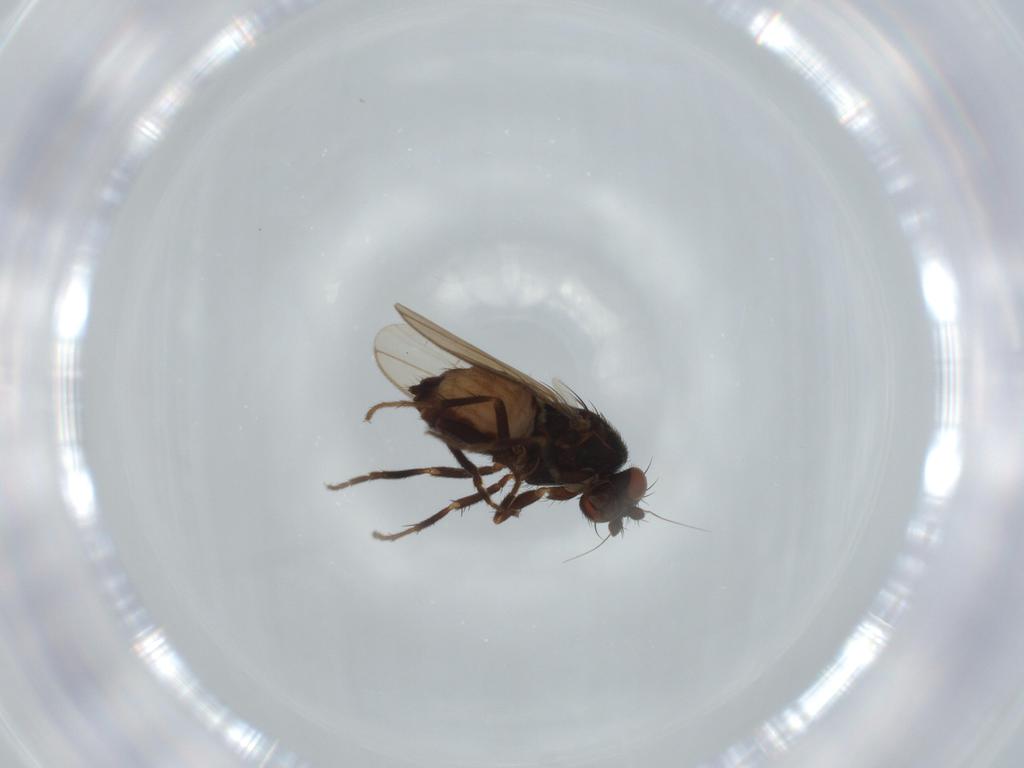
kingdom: Animalia
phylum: Arthropoda
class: Insecta
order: Diptera
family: Sphaeroceridae
